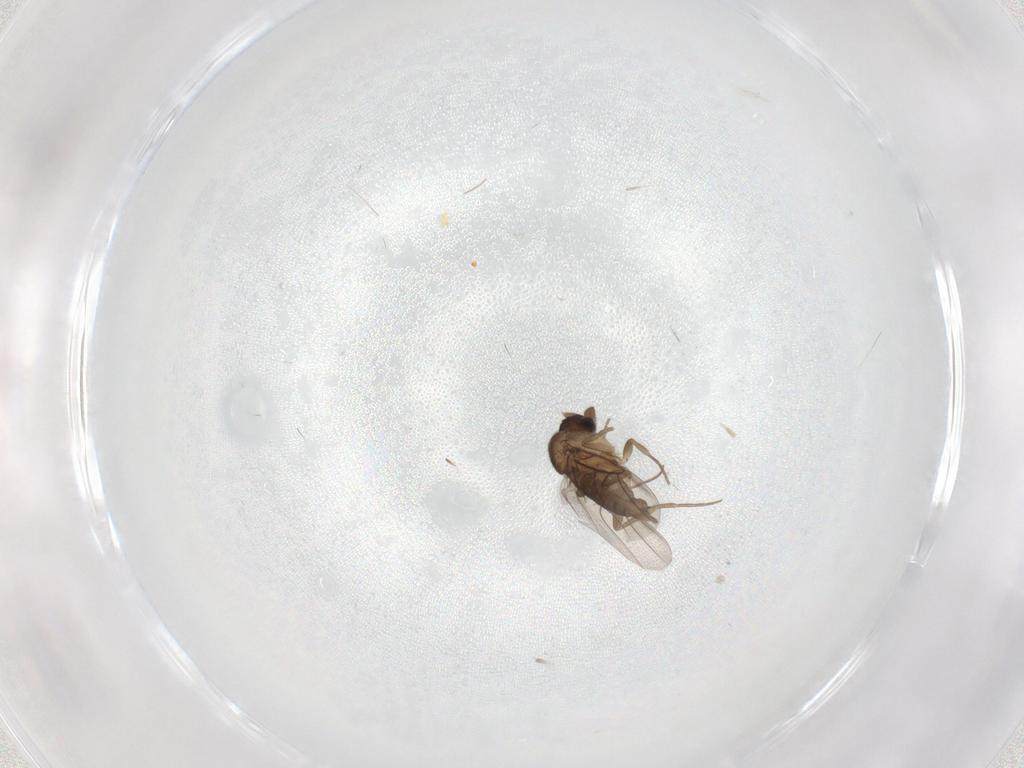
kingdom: Animalia
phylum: Arthropoda
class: Insecta
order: Diptera
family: Phoridae
